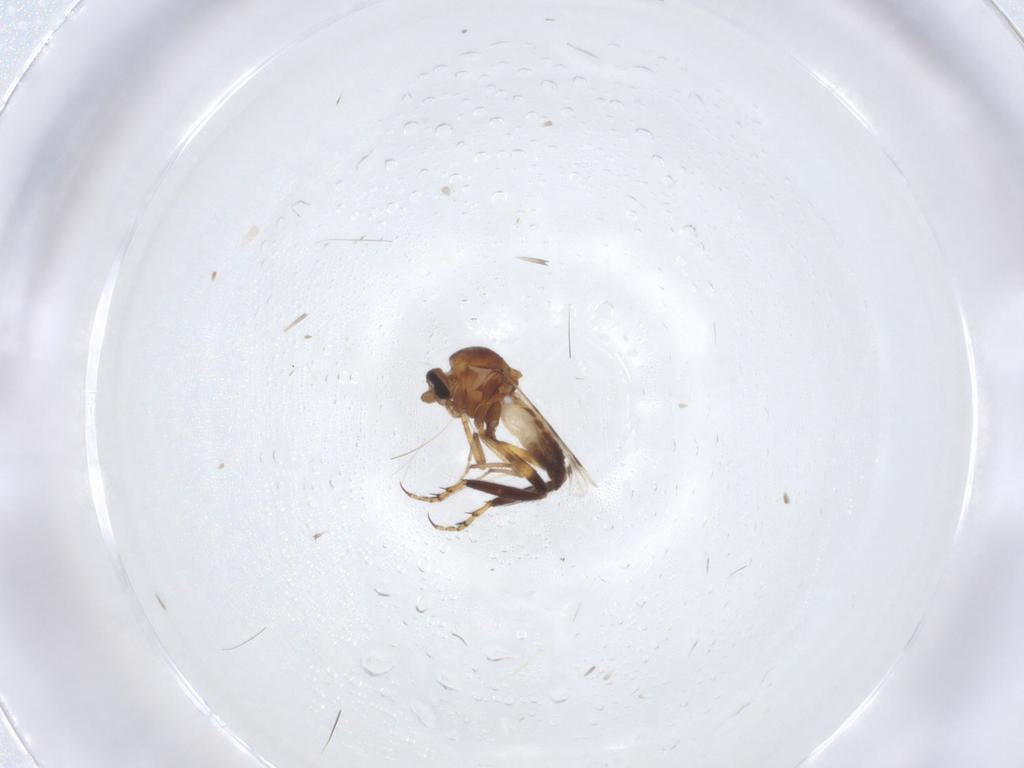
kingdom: Animalia
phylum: Arthropoda
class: Insecta
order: Diptera
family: Ceratopogonidae
